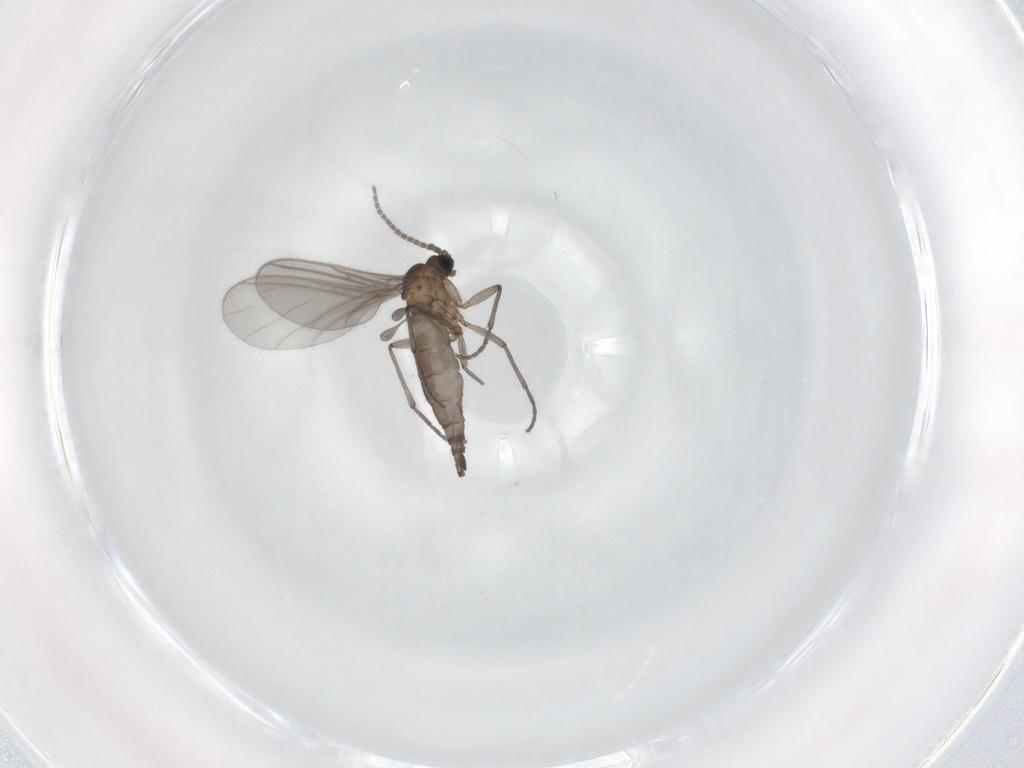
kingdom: Animalia
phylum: Arthropoda
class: Insecta
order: Diptera
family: Sciaridae
